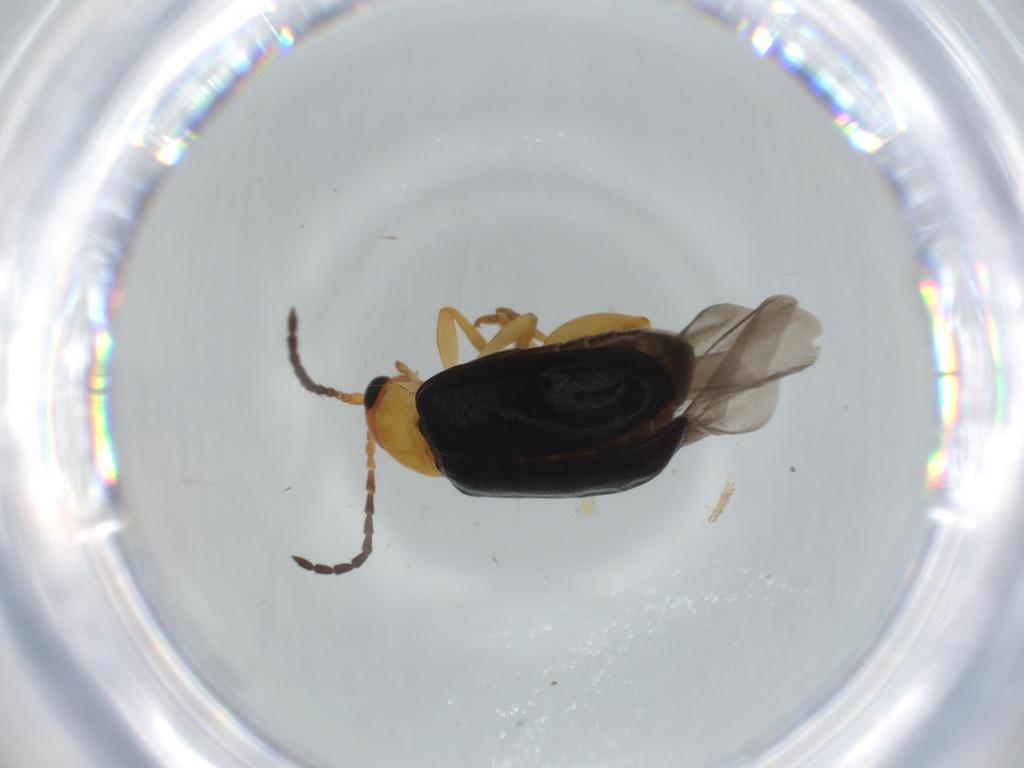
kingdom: Animalia
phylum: Arthropoda
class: Insecta
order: Coleoptera
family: Chrysomelidae
